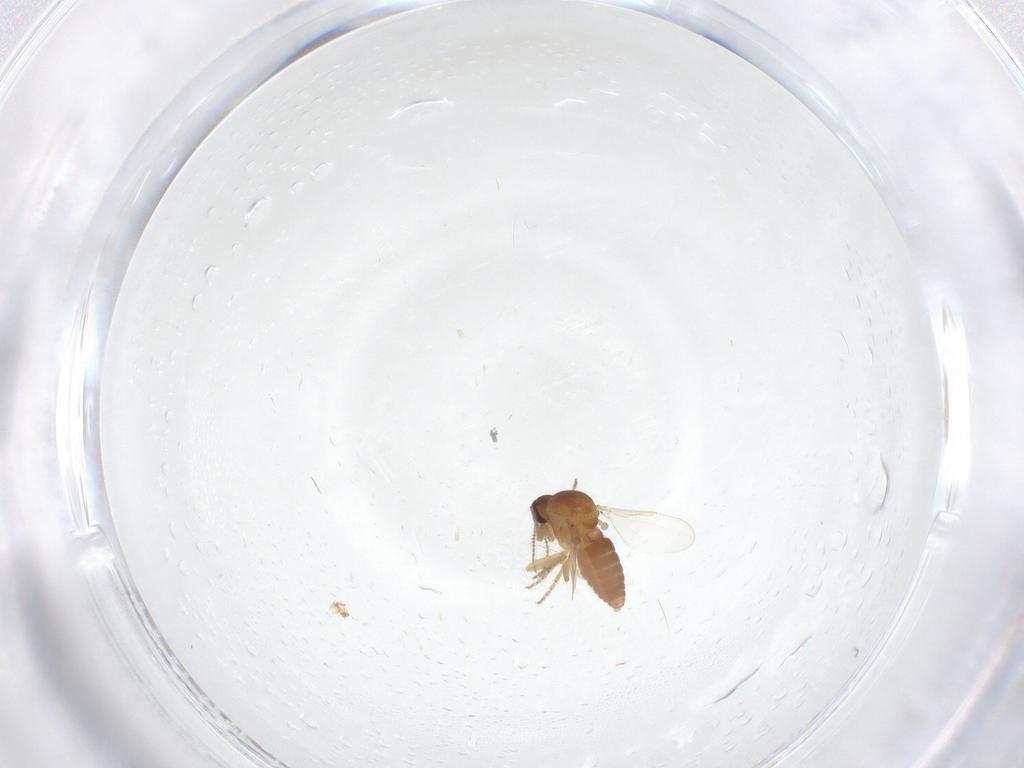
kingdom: Animalia
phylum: Arthropoda
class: Insecta
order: Diptera
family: Ceratopogonidae
